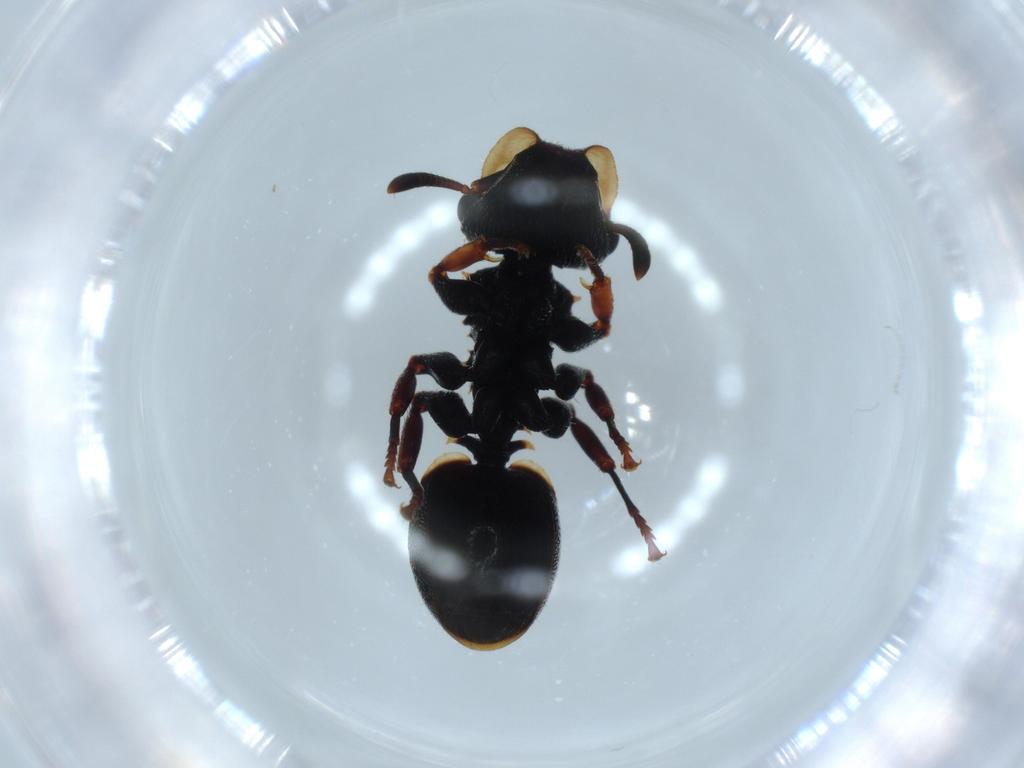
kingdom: Animalia
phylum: Arthropoda
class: Insecta
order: Hymenoptera
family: Formicidae
